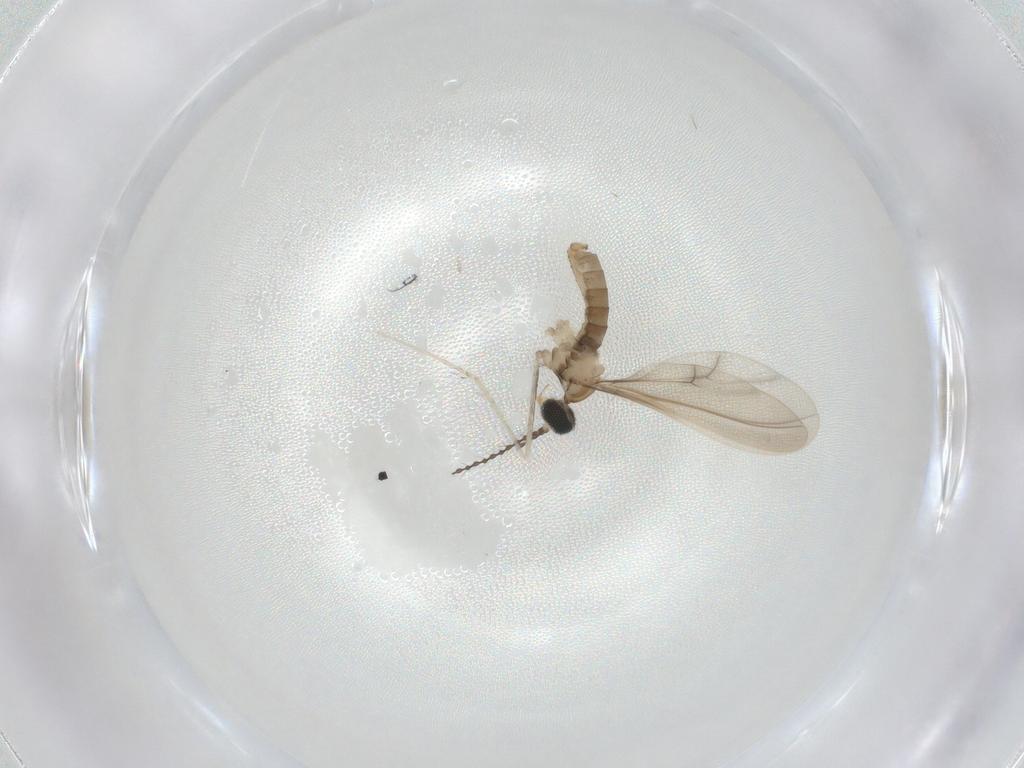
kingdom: Animalia
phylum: Arthropoda
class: Insecta
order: Diptera
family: Cecidomyiidae
